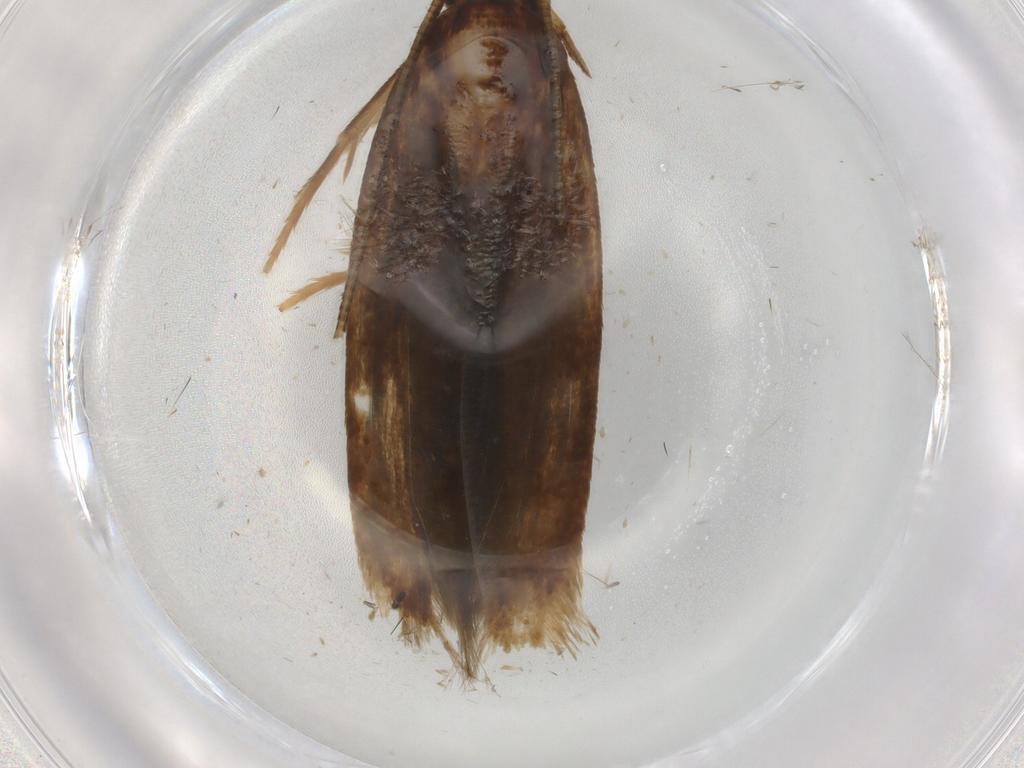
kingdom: Animalia
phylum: Arthropoda
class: Insecta
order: Lepidoptera
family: Tineidae
